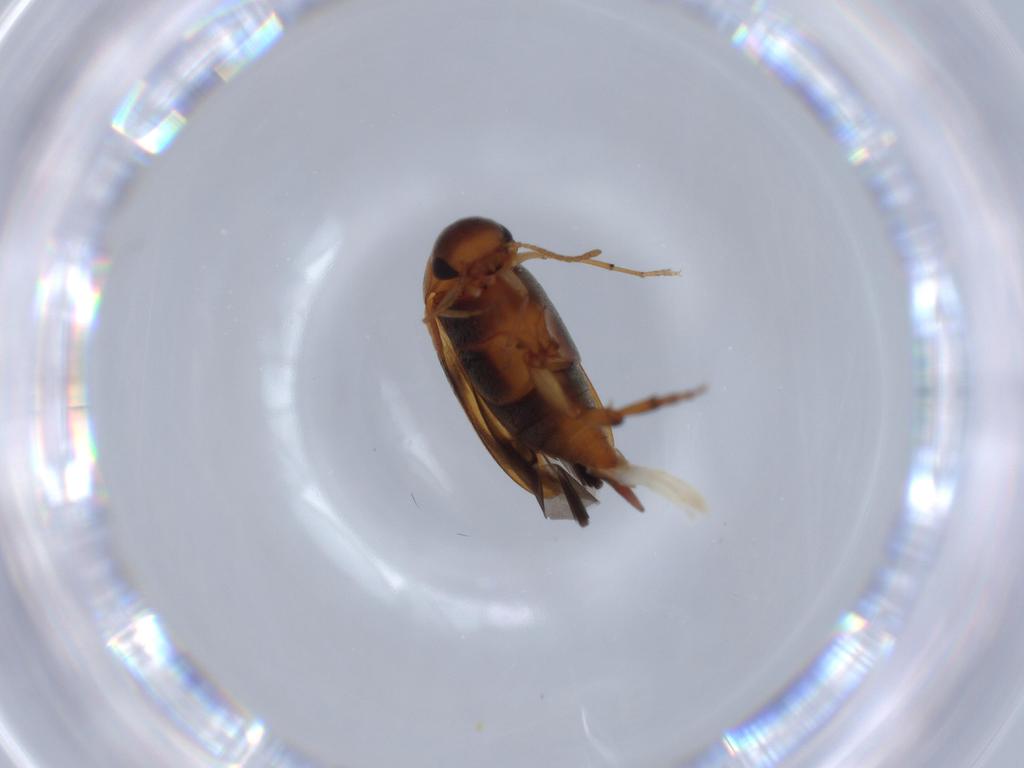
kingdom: Animalia
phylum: Arthropoda
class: Insecta
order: Coleoptera
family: Mordellidae
